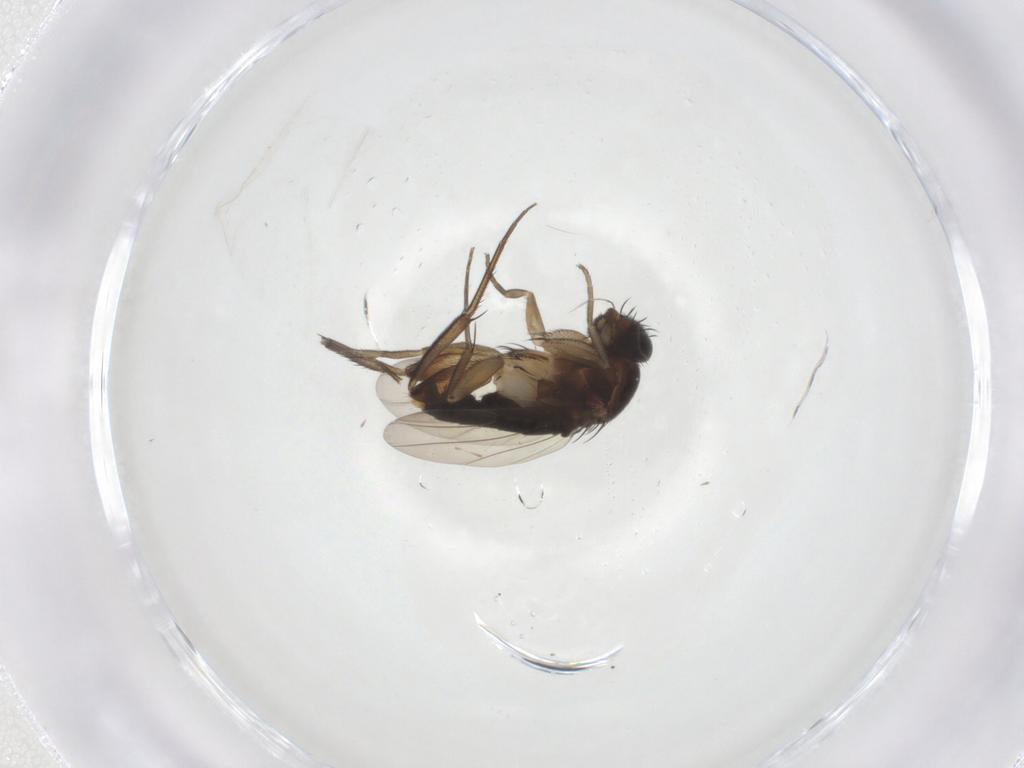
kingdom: Animalia
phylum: Arthropoda
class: Insecta
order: Diptera
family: Phoridae
